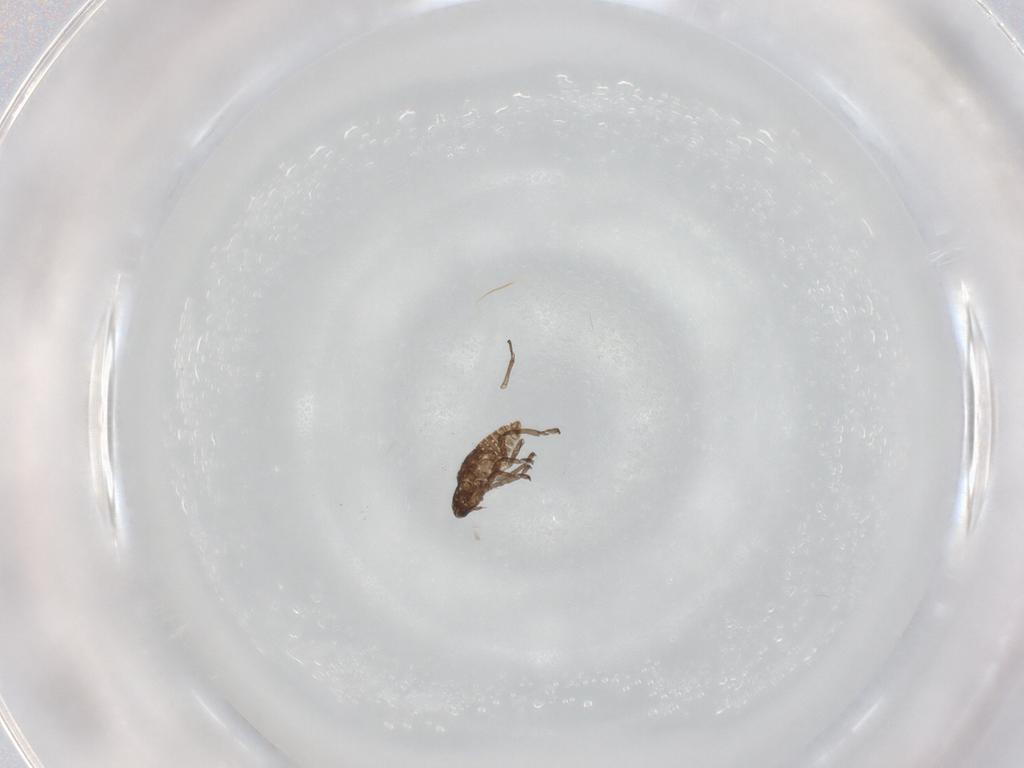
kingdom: Animalia
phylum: Arthropoda
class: Insecta
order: Diptera
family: Chironomidae
